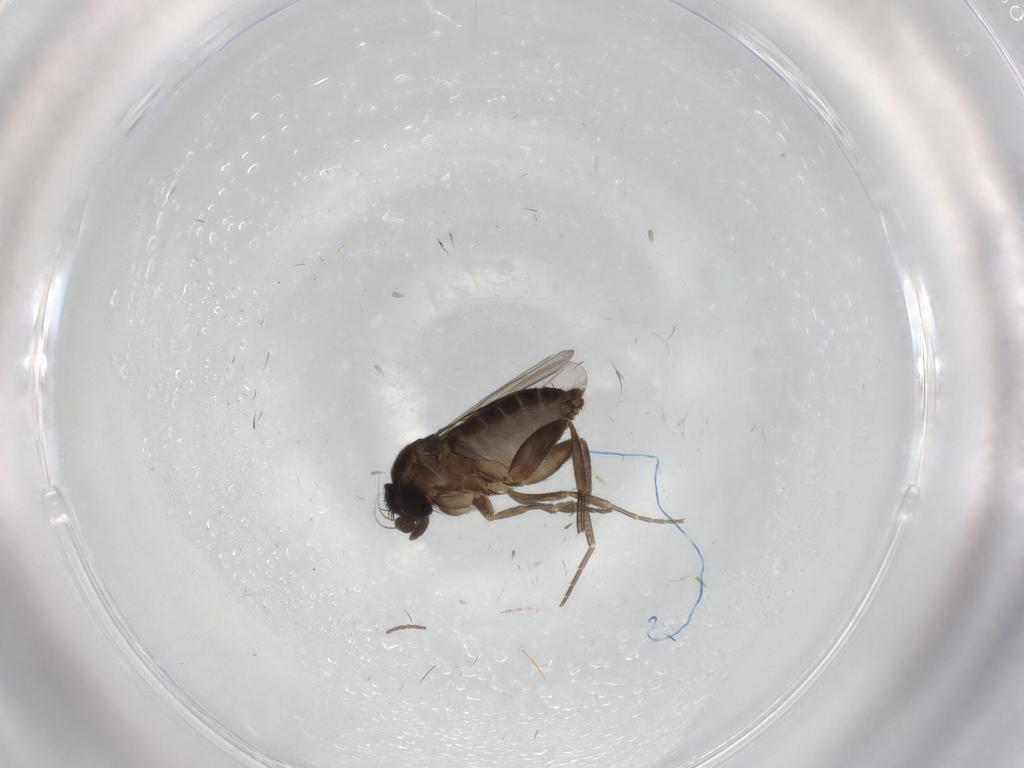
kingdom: Animalia
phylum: Arthropoda
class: Insecta
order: Diptera
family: Phoridae
